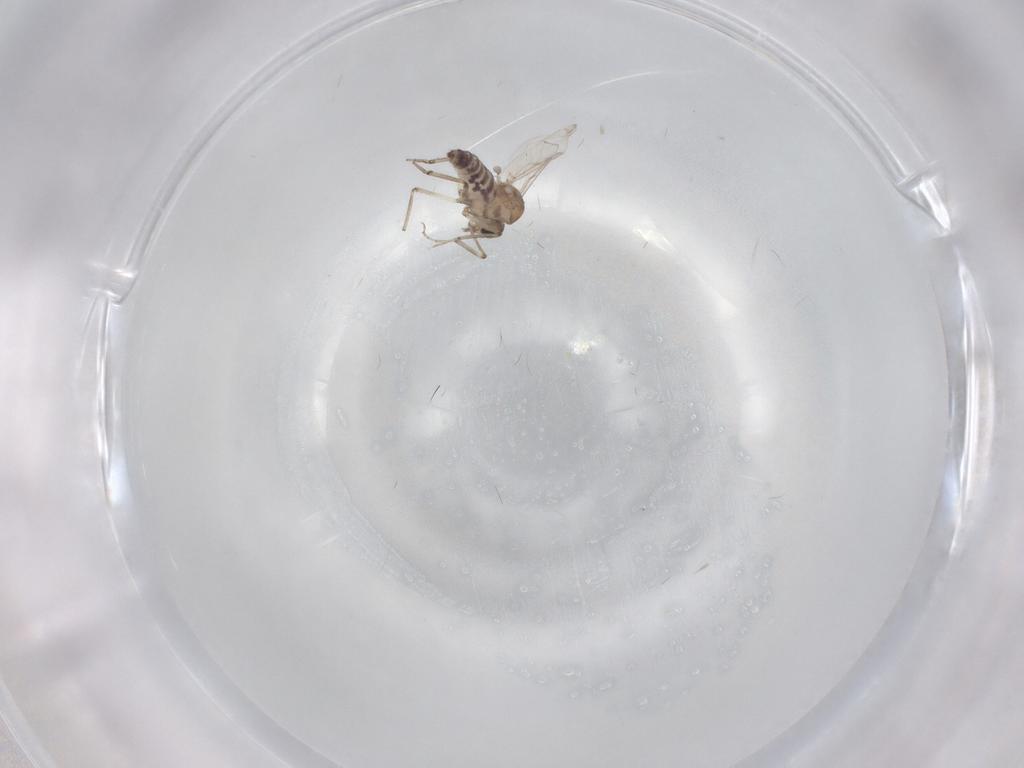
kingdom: Animalia
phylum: Arthropoda
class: Insecta
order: Diptera
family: Ceratopogonidae
